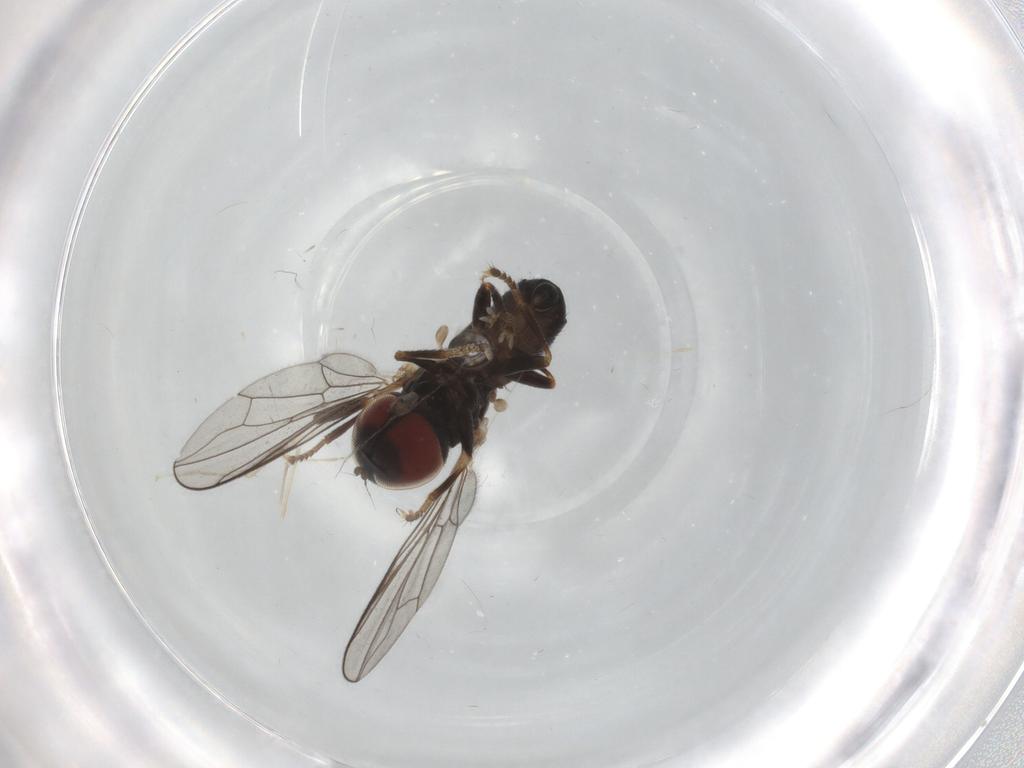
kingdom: Animalia
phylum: Arthropoda
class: Insecta
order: Diptera
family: Pipunculidae
